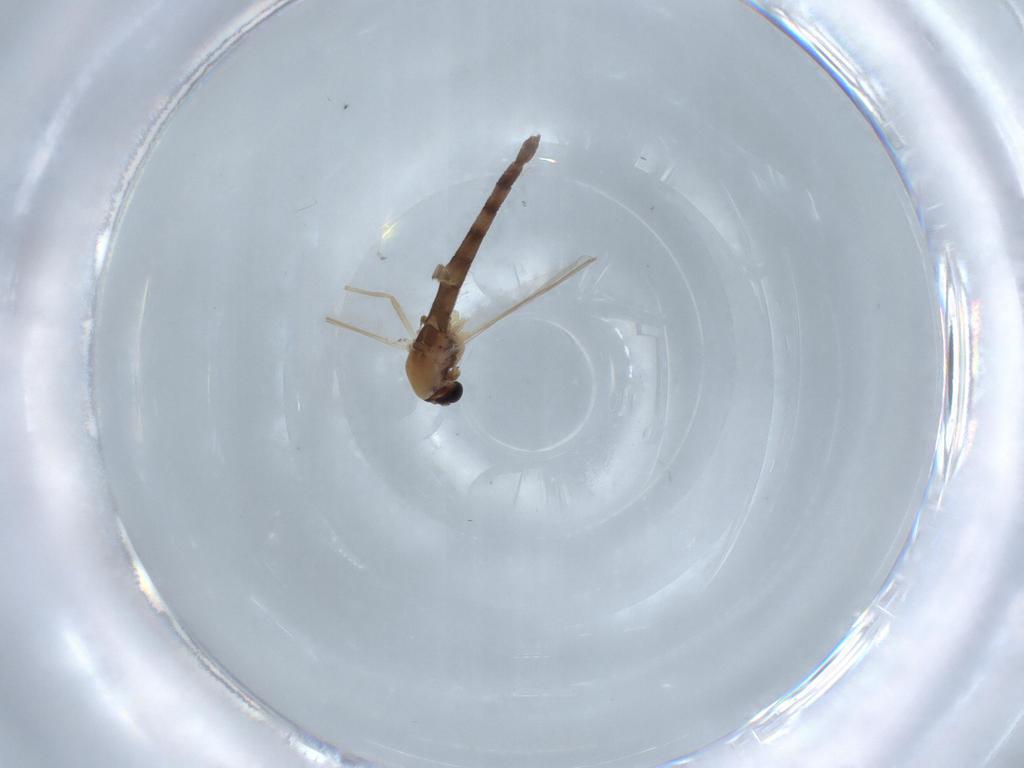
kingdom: Animalia
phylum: Arthropoda
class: Insecta
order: Diptera
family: Chironomidae
